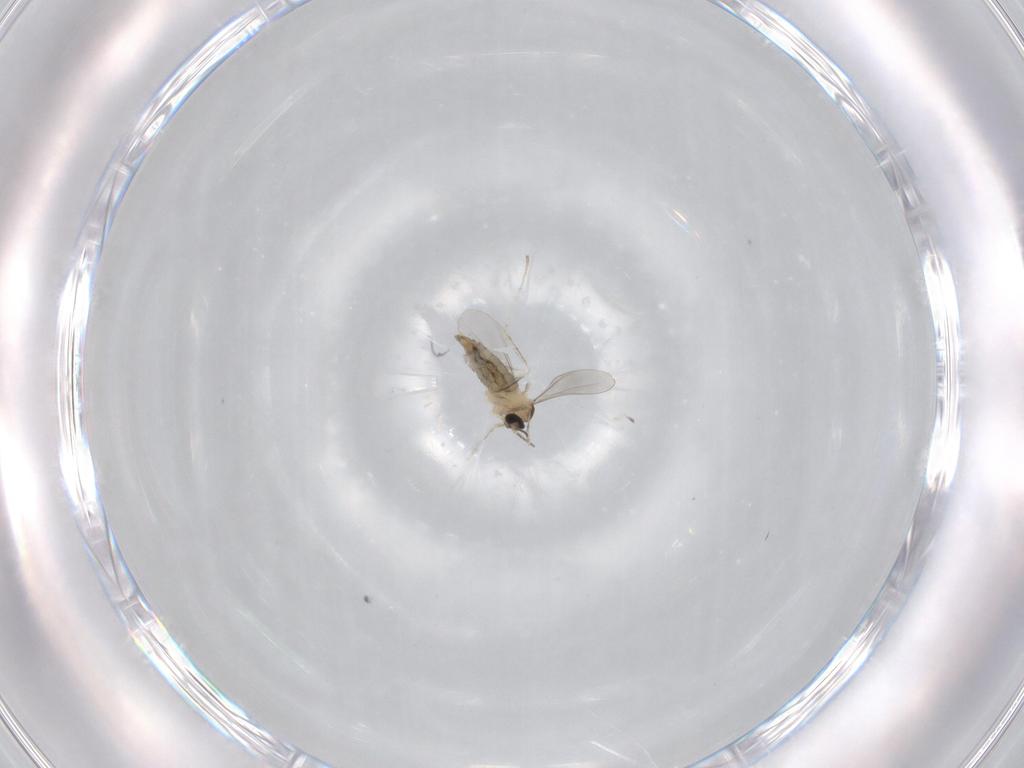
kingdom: Animalia
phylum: Arthropoda
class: Insecta
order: Diptera
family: Cecidomyiidae
